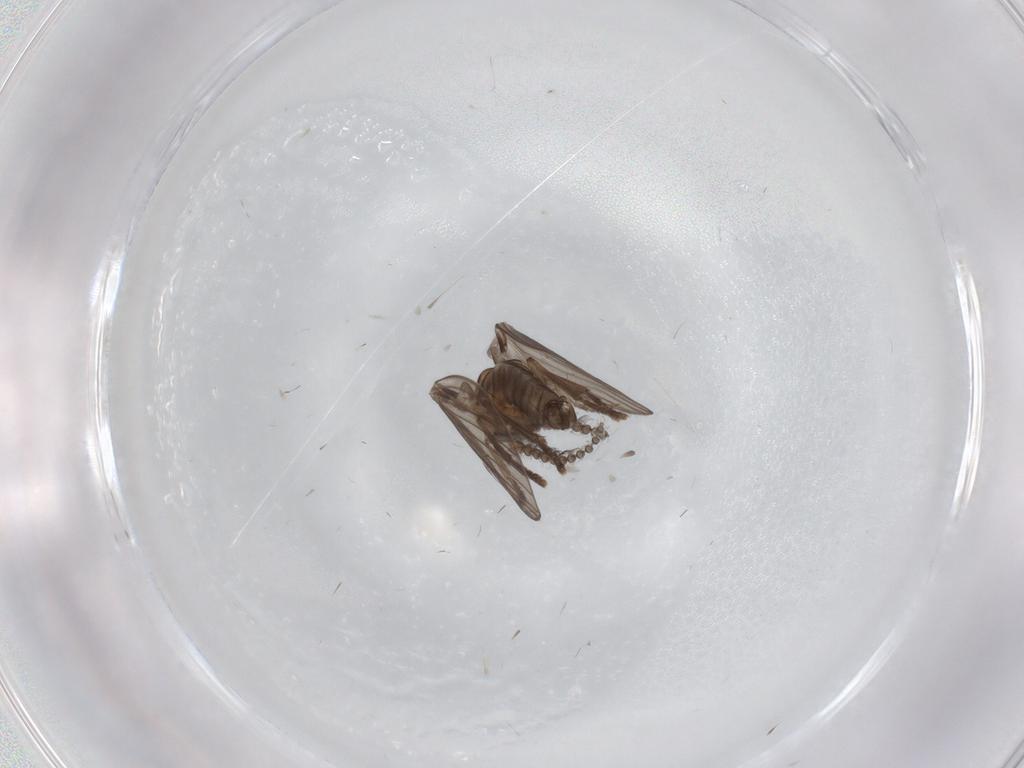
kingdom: Animalia
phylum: Arthropoda
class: Insecta
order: Diptera
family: Psychodidae
